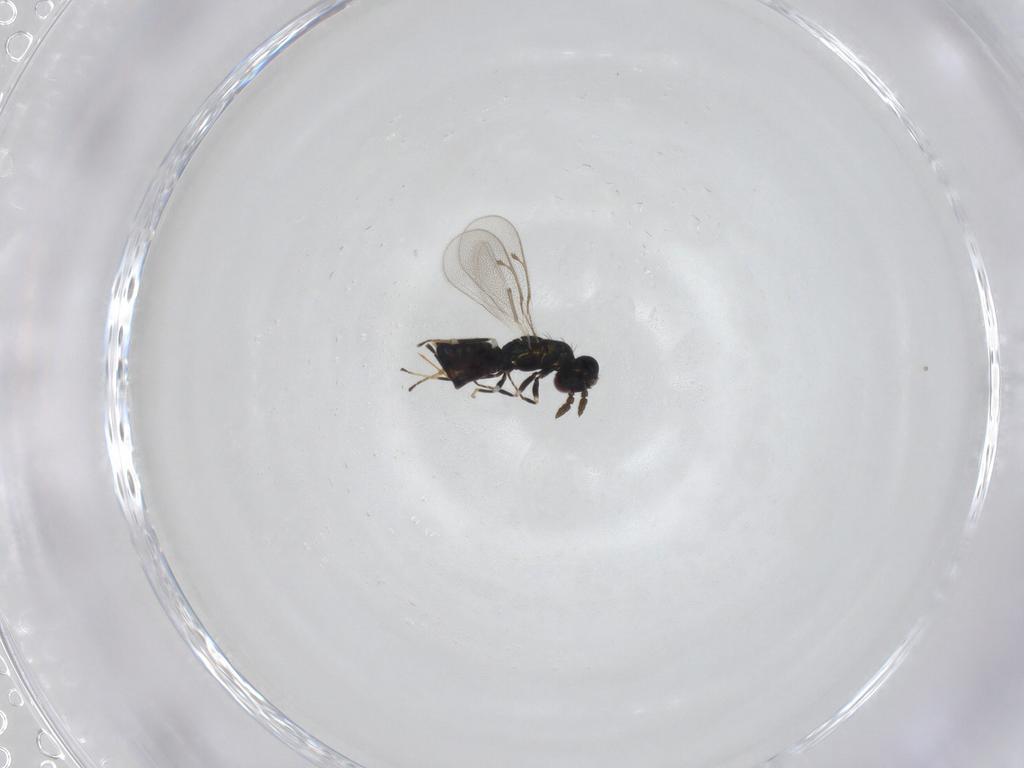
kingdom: Animalia
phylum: Arthropoda
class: Insecta
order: Hymenoptera
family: Eulophidae
